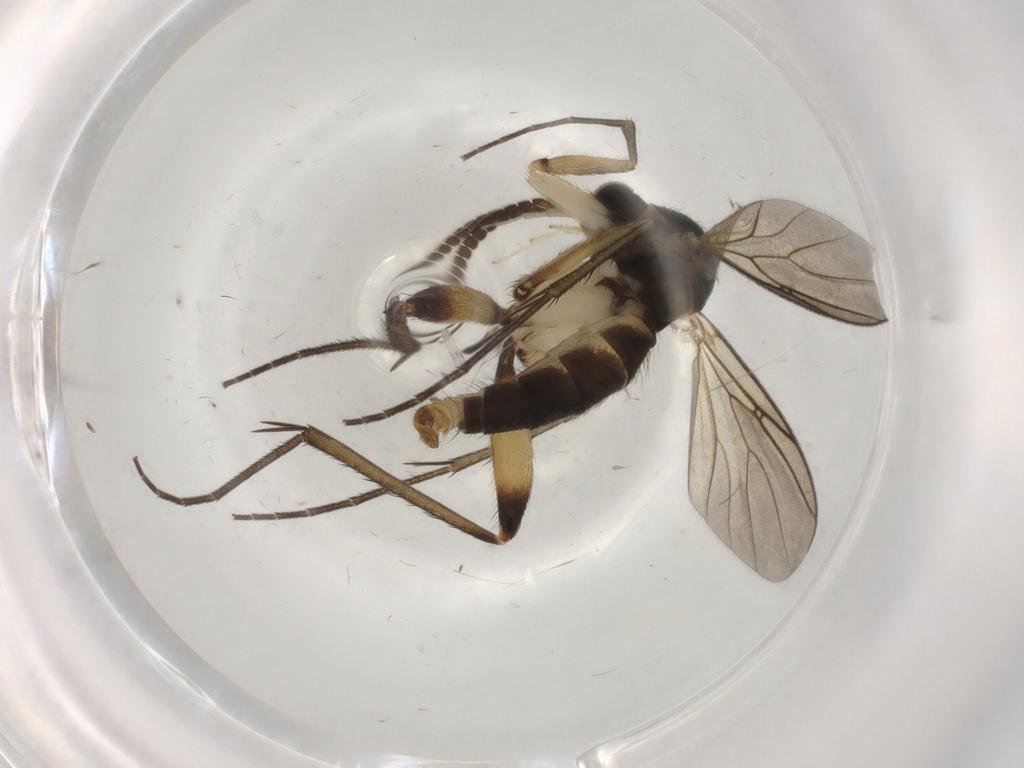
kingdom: Animalia
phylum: Arthropoda
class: Insecta
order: Diptera
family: Mycetophilidae
